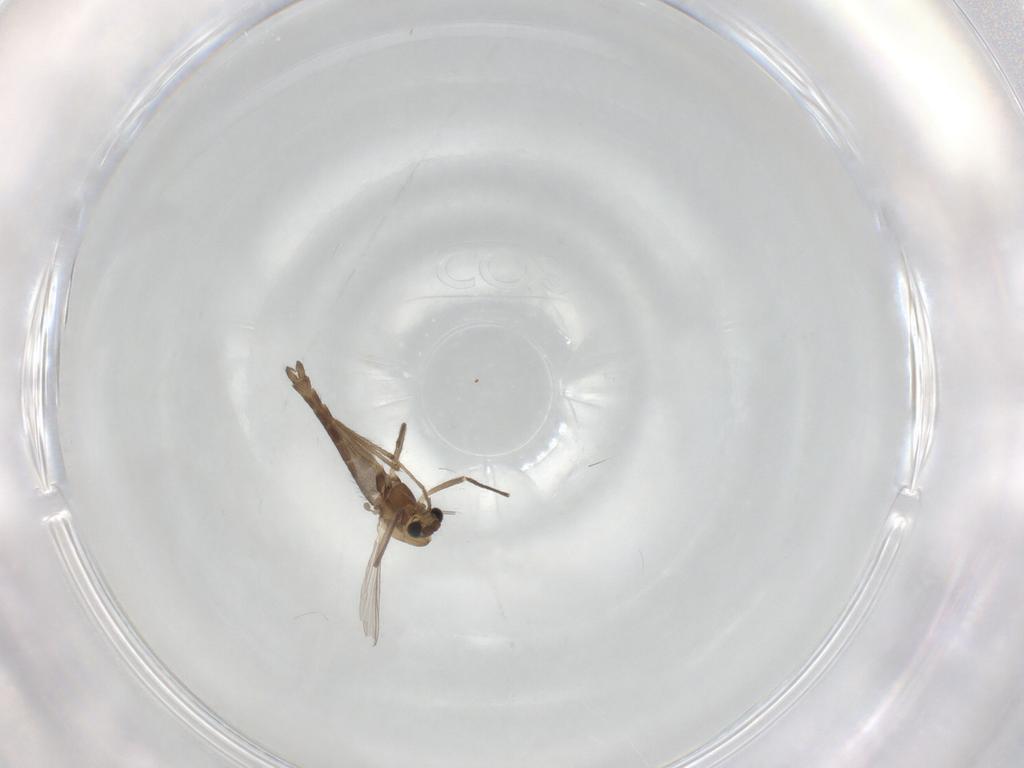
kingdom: Animalia
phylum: Arthropoda
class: Insecta
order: Diptera
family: Chironomidae
